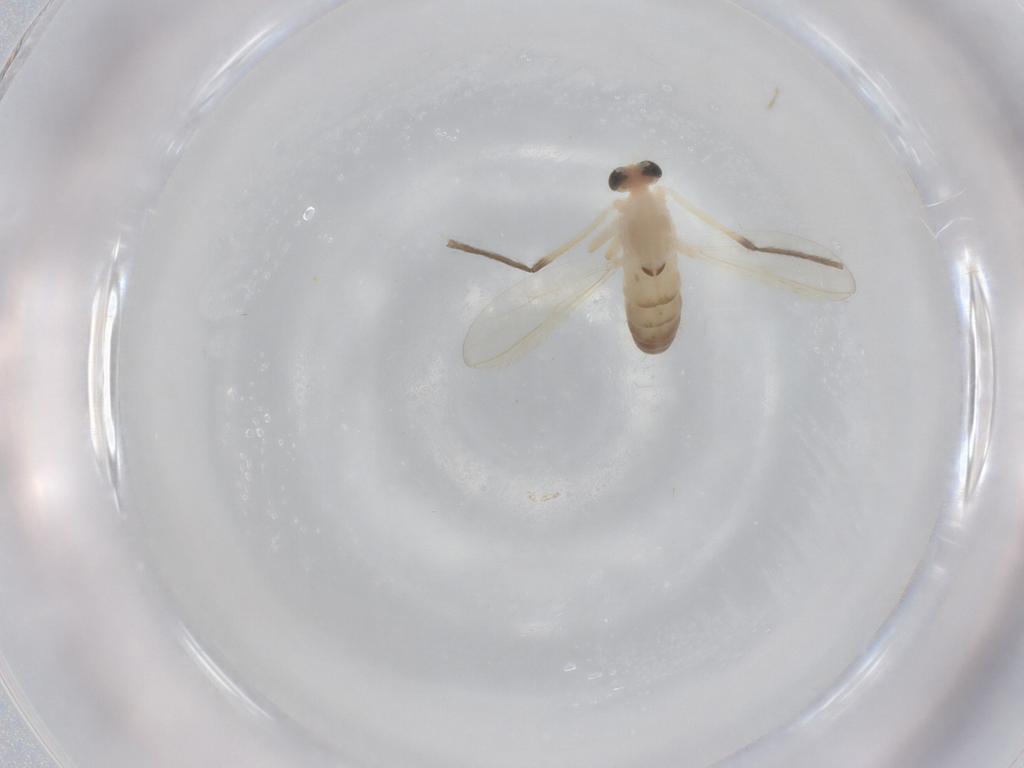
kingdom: Animalia
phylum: Arthropoda
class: Insecta
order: Diptera
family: Chironomidae
